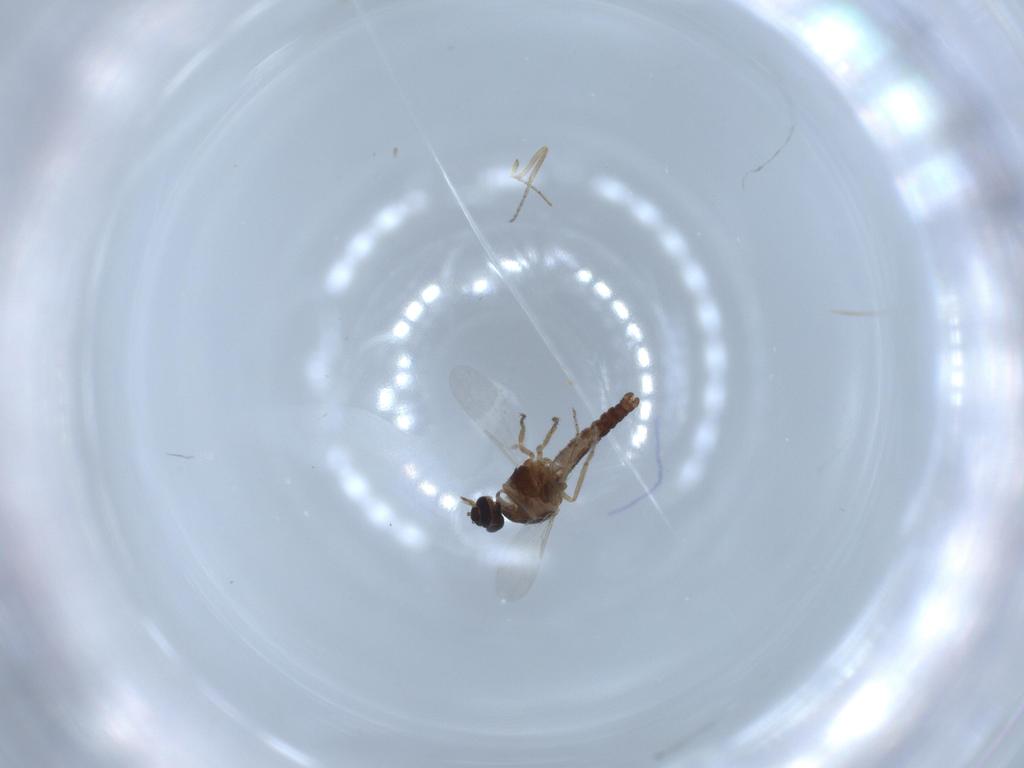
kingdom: Animalia
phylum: Arthropoda
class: Insecta
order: Diptera
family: Ceratopogonidae
